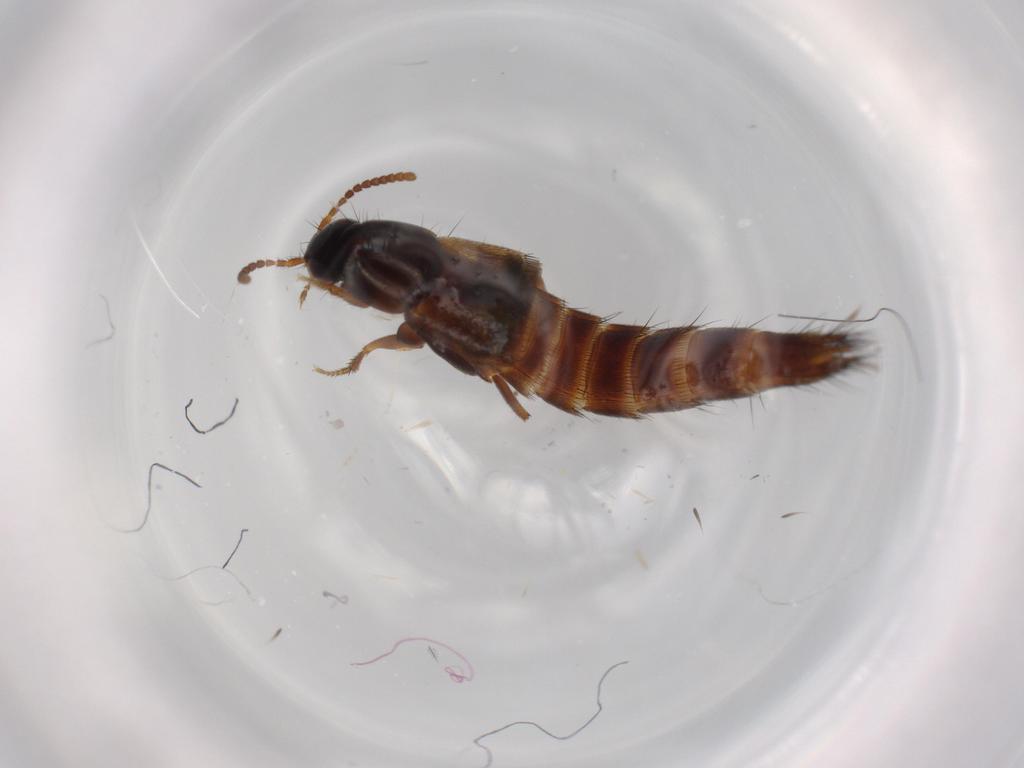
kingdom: Animalia
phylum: Arthropoda
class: Insecta
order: Coleoptera
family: Staphylinidae
